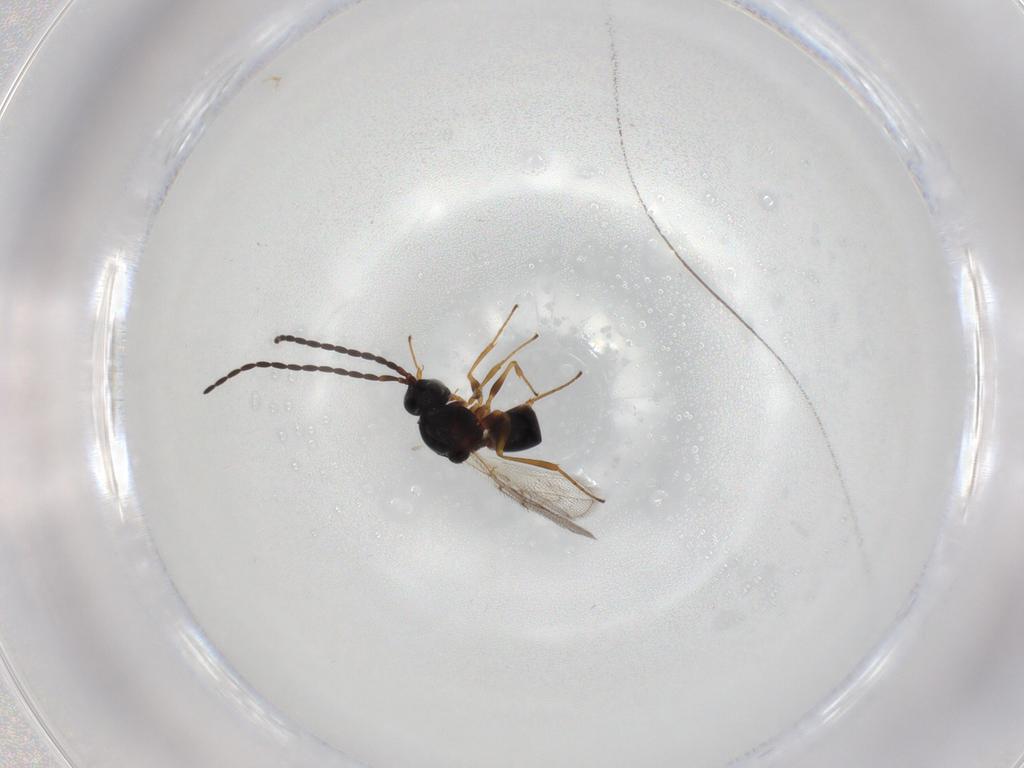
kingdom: Animalia
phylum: Arthropoda
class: Insecta
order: Hymenoptera
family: Figitidae
